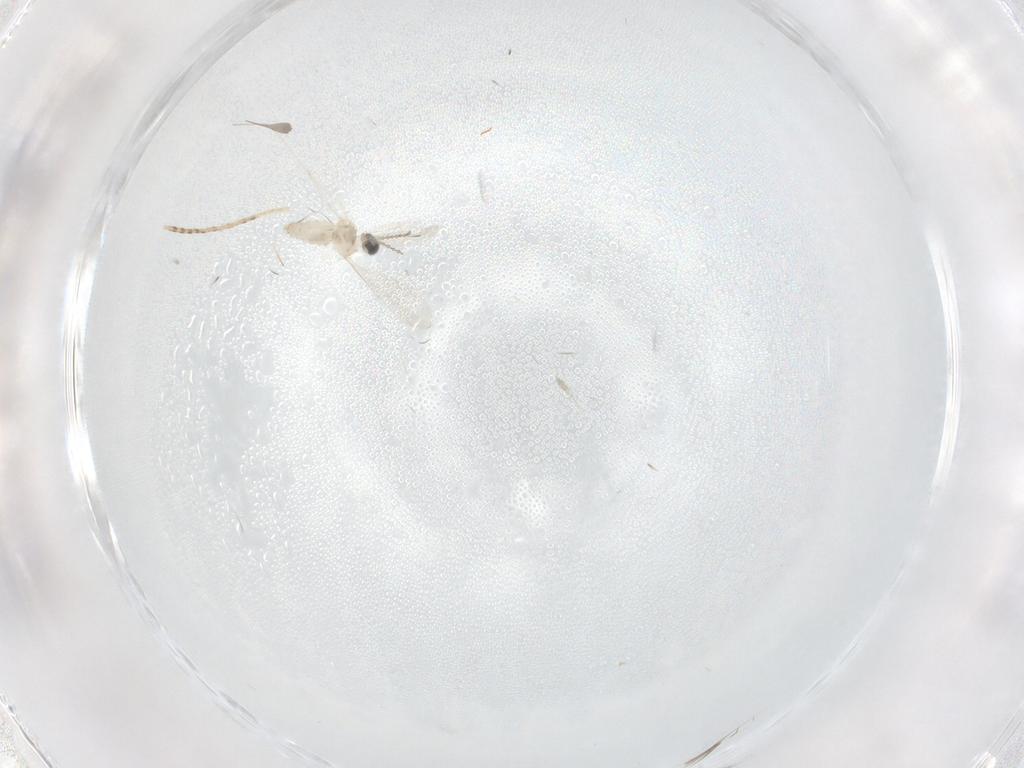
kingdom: Animalia
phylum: Arthropoda
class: Insecta
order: Diptera
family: Cecidomyiidae
